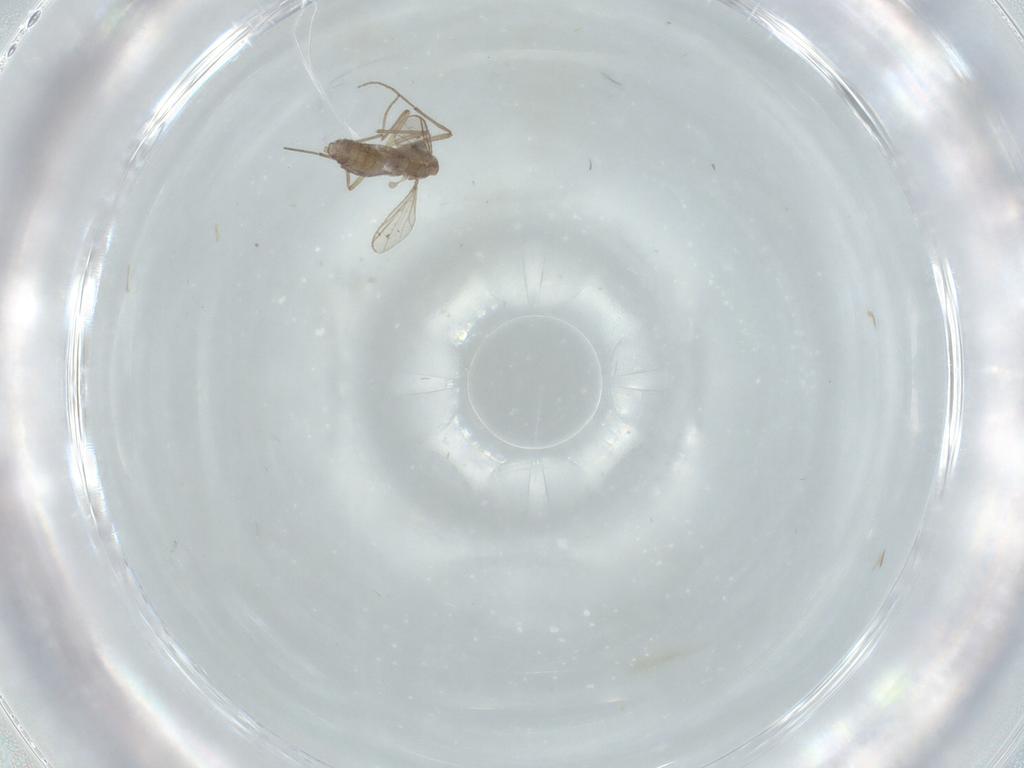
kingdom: Animalia
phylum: Arthropoda
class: Insecta
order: Diptera
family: Chironomidae
